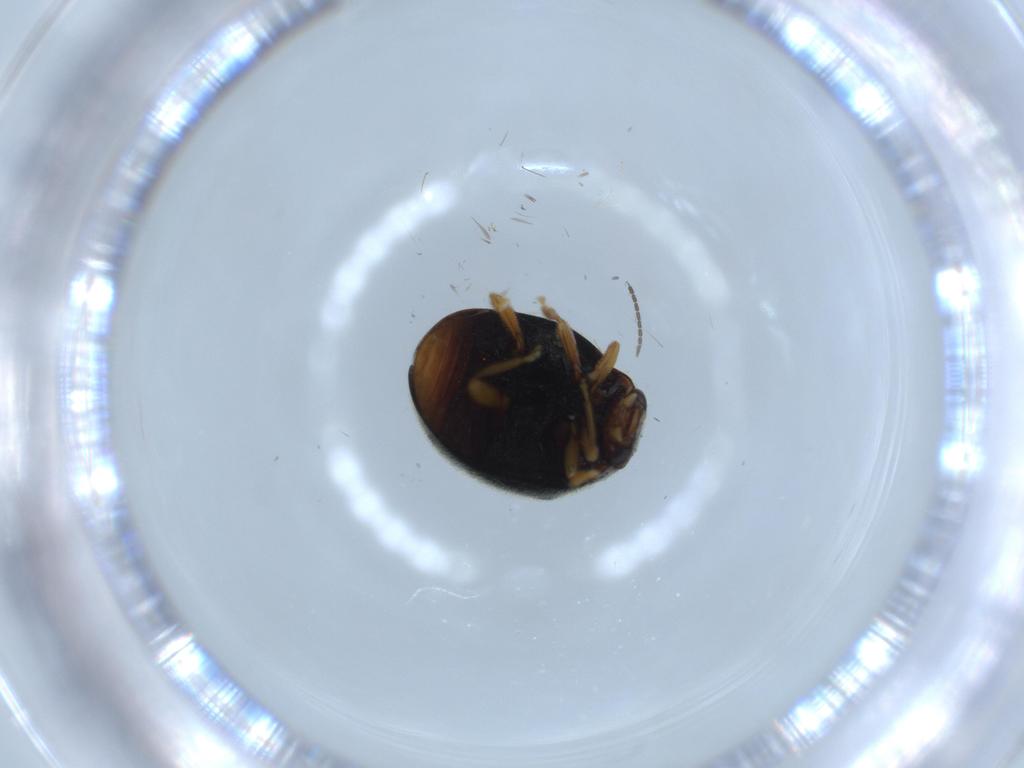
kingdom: Animalia
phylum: Arthropoda
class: Insecta
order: Coleoptera
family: Coccinellidae
